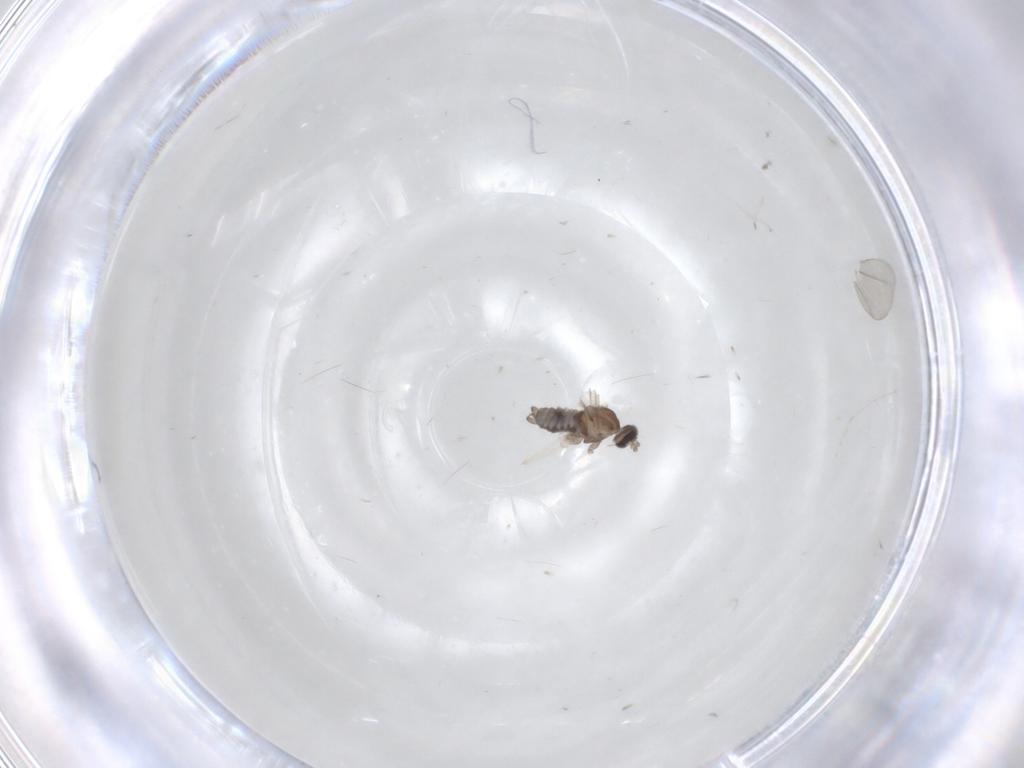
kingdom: Animalia
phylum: Arthropoda
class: Insecta
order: Diptera
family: Cecidomyiidae
